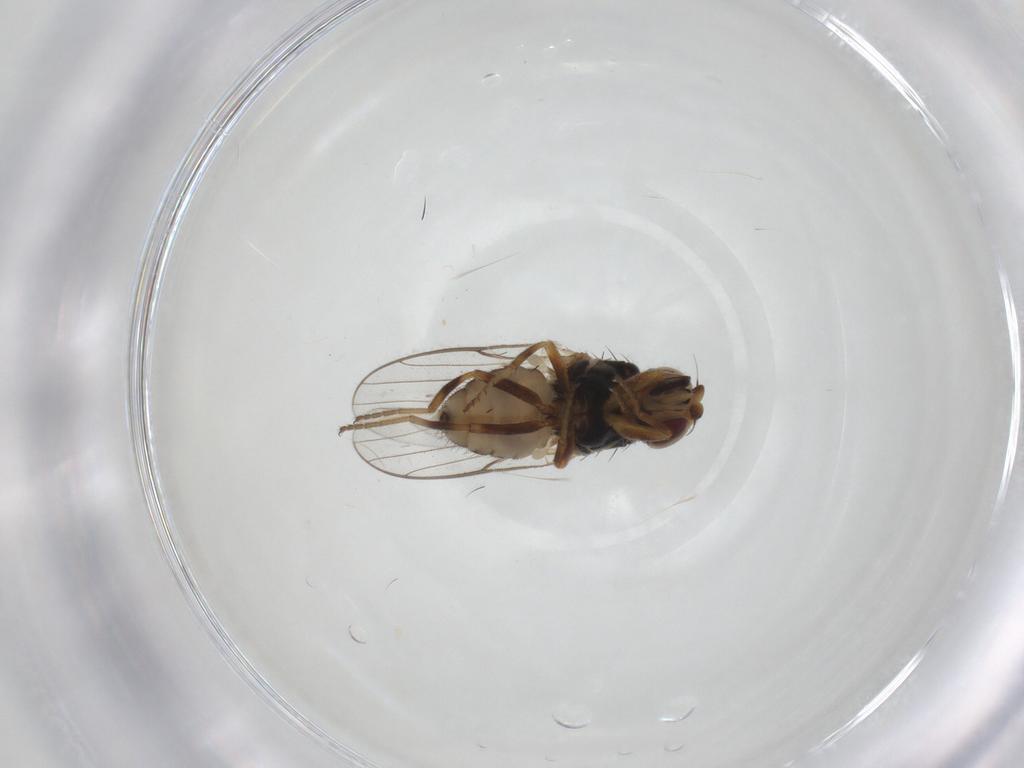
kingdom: Animalia
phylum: Arthropoda
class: Insecta
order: Diptera
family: Chloropidae
